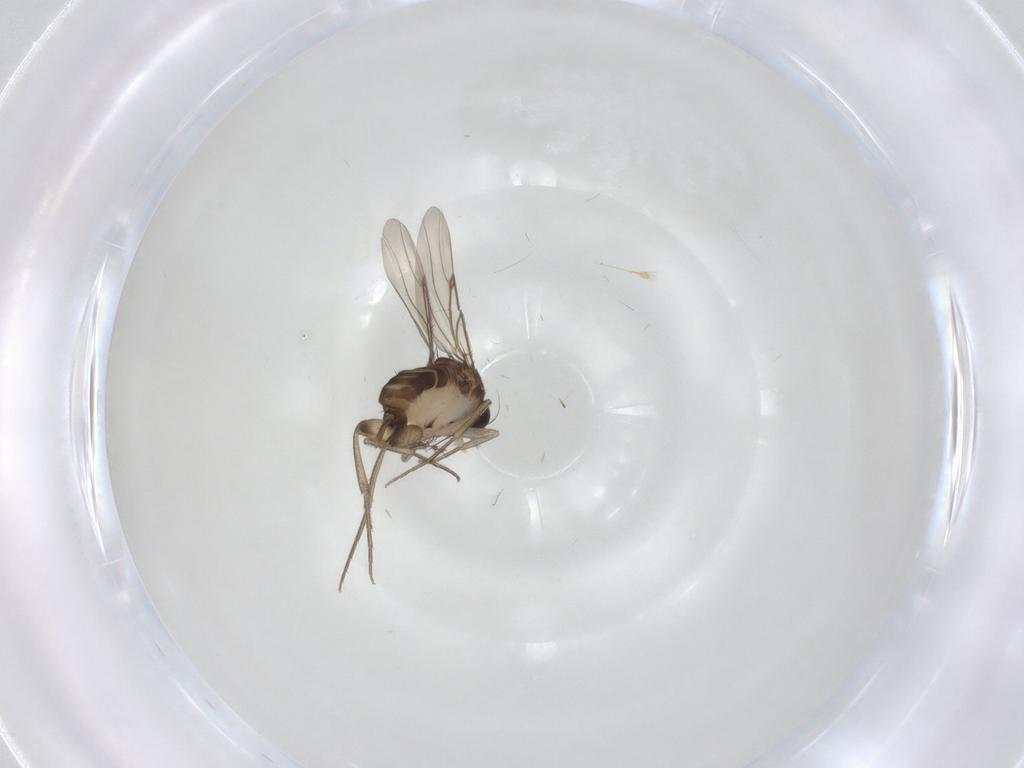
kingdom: Animalia
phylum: Arthropoda
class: Insecta
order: Diptera
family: Phoridae
